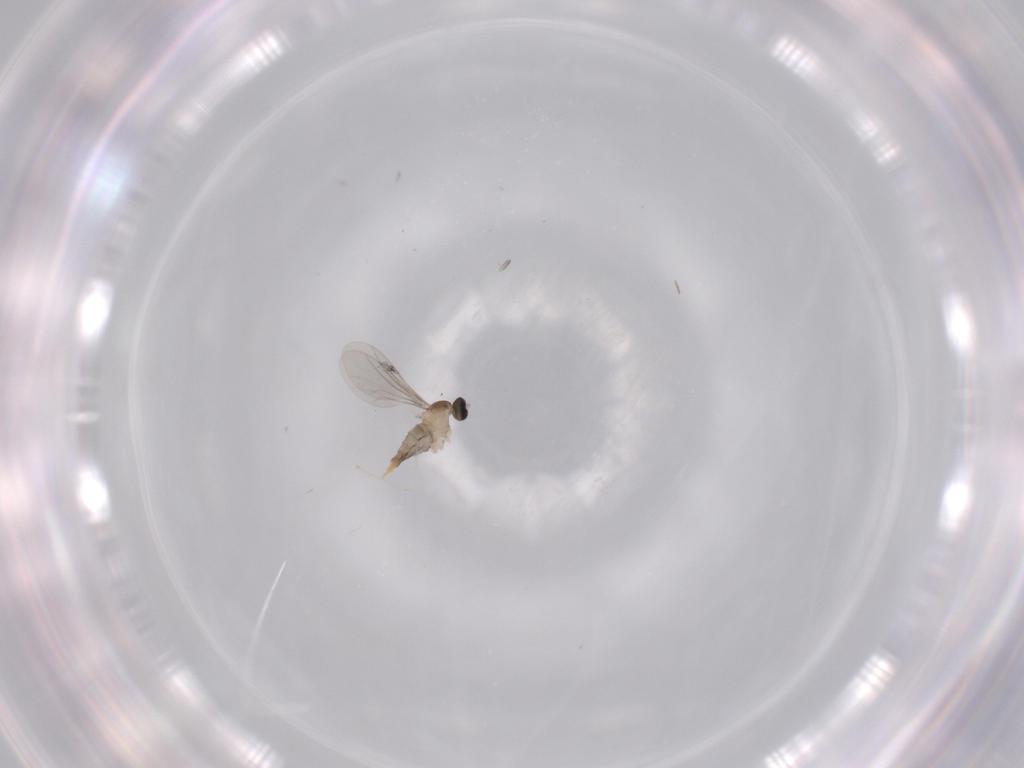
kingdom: Animalia
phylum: Arthropoda
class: Insecta
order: Diptera
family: Cecidomyiidae
